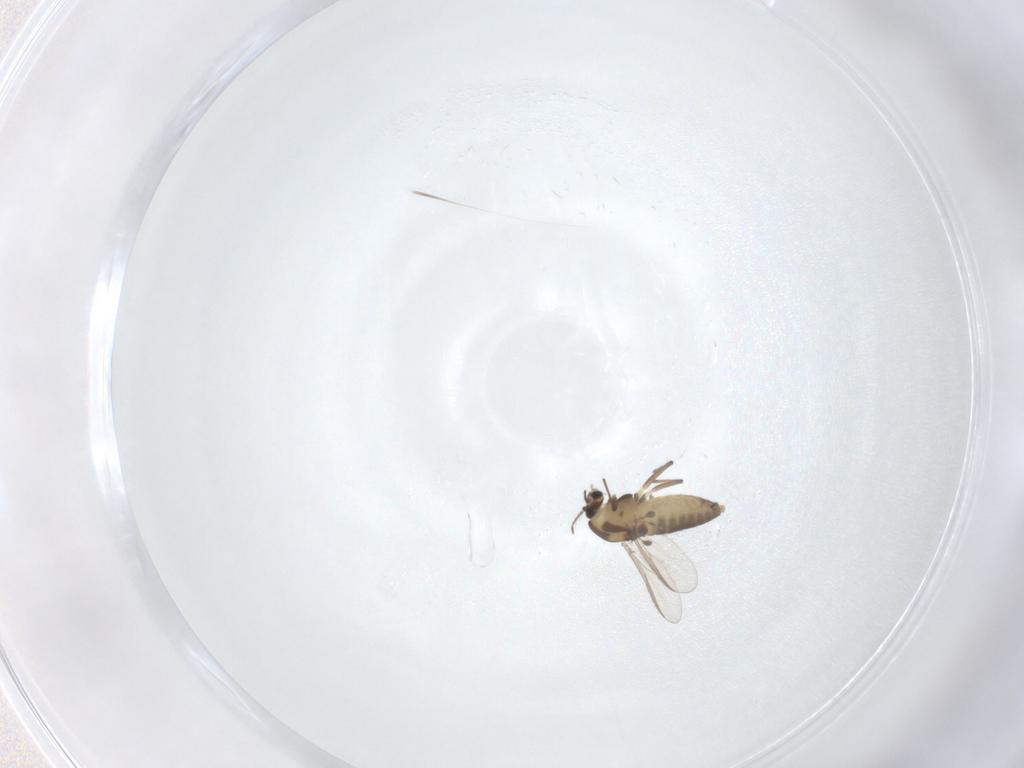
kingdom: Animalia
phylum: Arthropoda
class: Insecta
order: Diptera
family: Chironomidae
